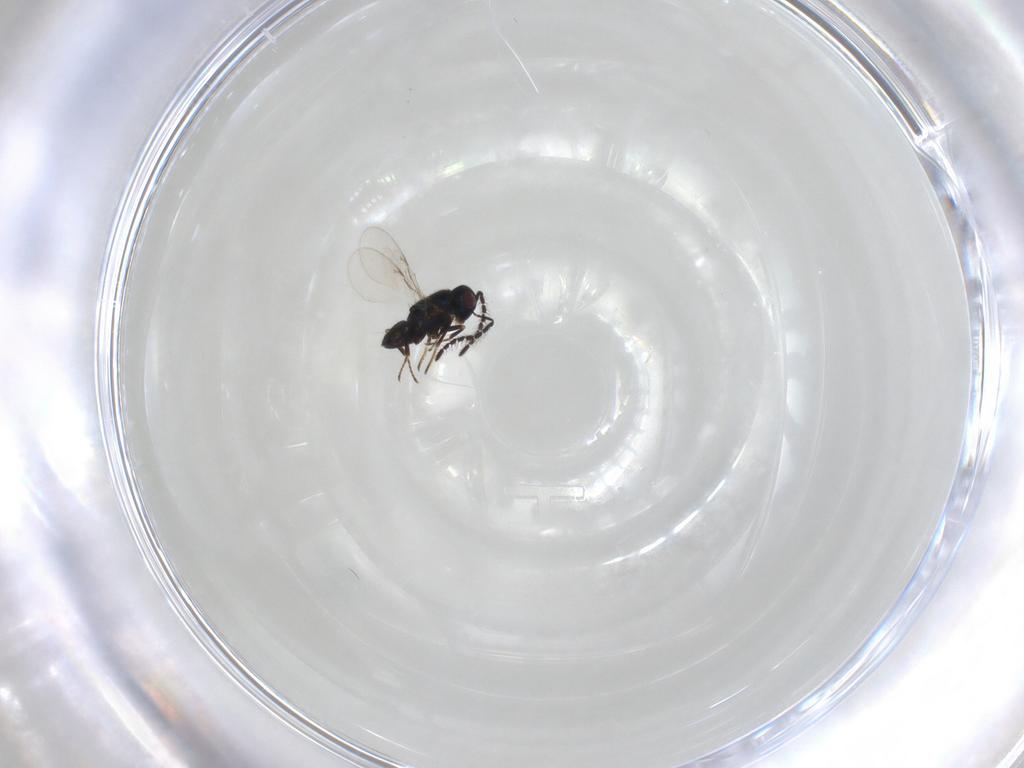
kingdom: Animalia
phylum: Arthropoda
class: Insecta
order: Hymenoptera
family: Encyrtidae
